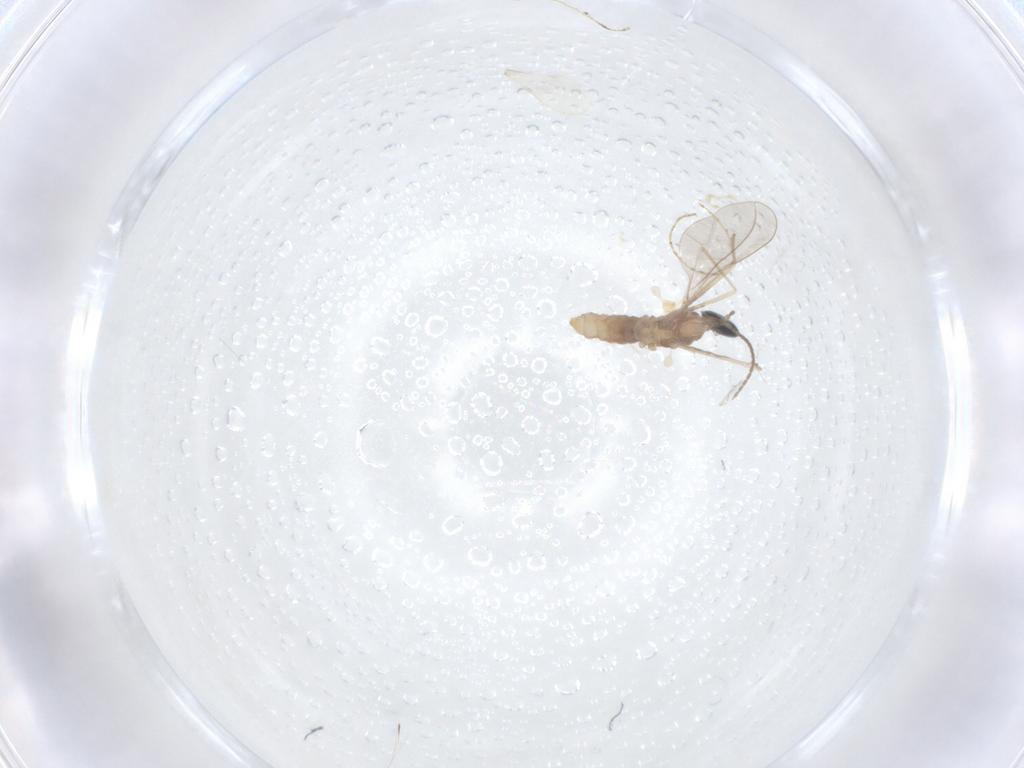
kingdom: Animalia
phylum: Arthropoda
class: Insecta
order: Diptera
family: Cecidomyiidae
